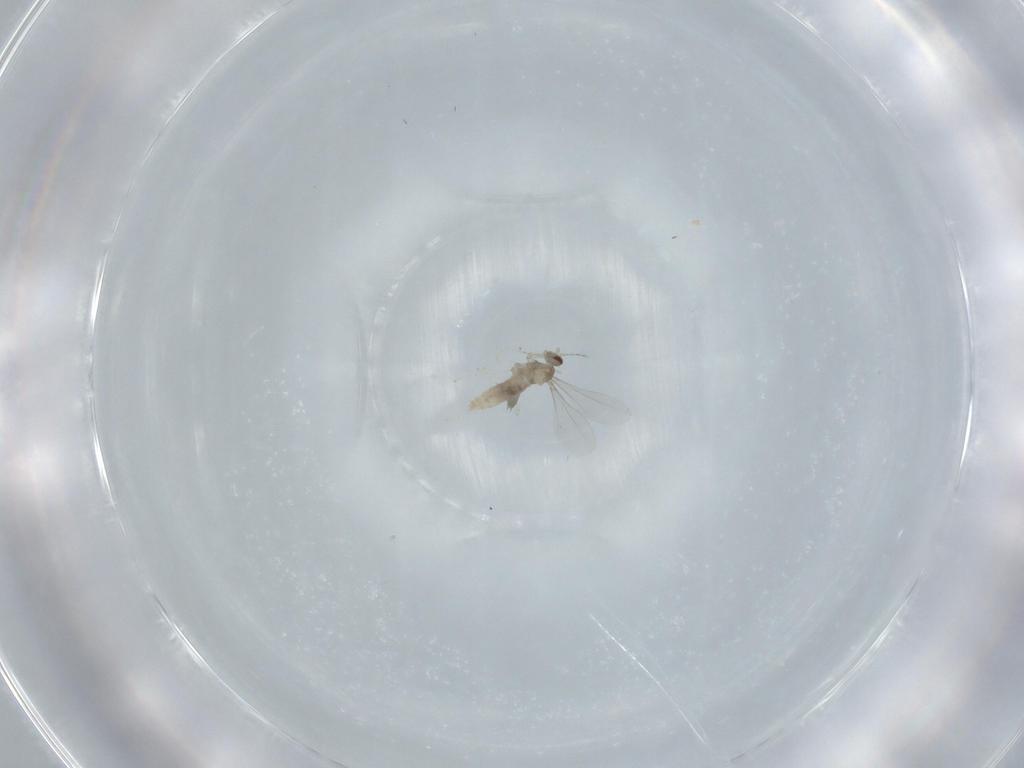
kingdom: Animalia
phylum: Arthropoda
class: Insecta
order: Diptera
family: Cecidomyiidae
